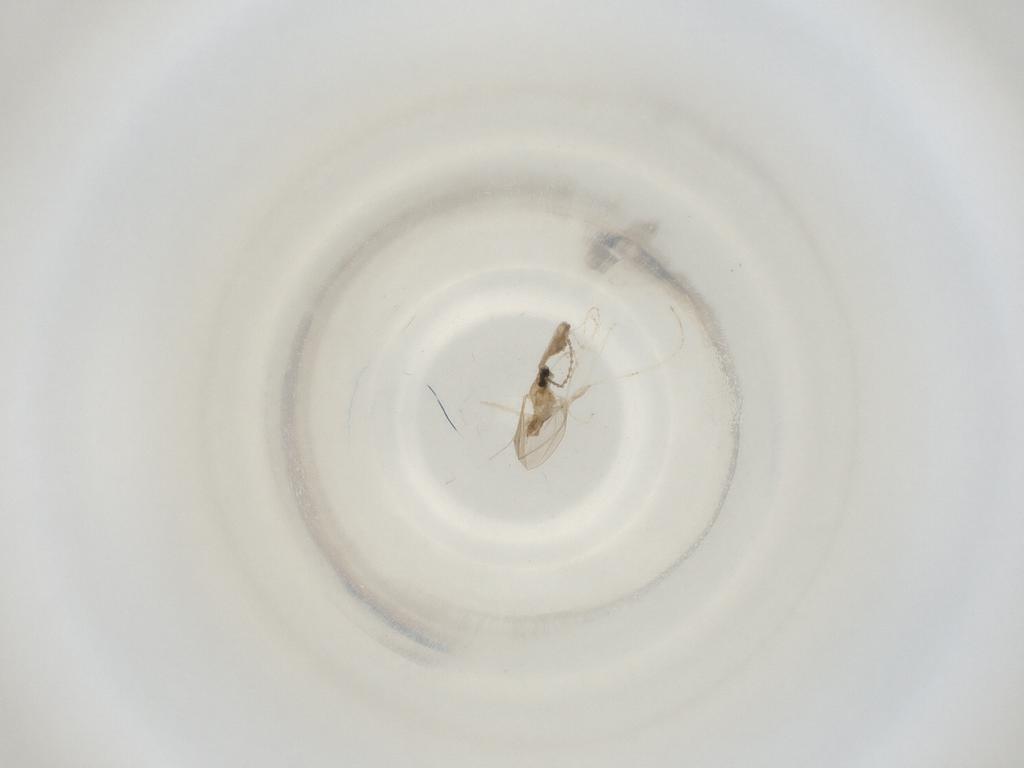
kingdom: Animalia
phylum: Arthropoda
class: Insecta
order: Diptera
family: Cecidomyiidae
